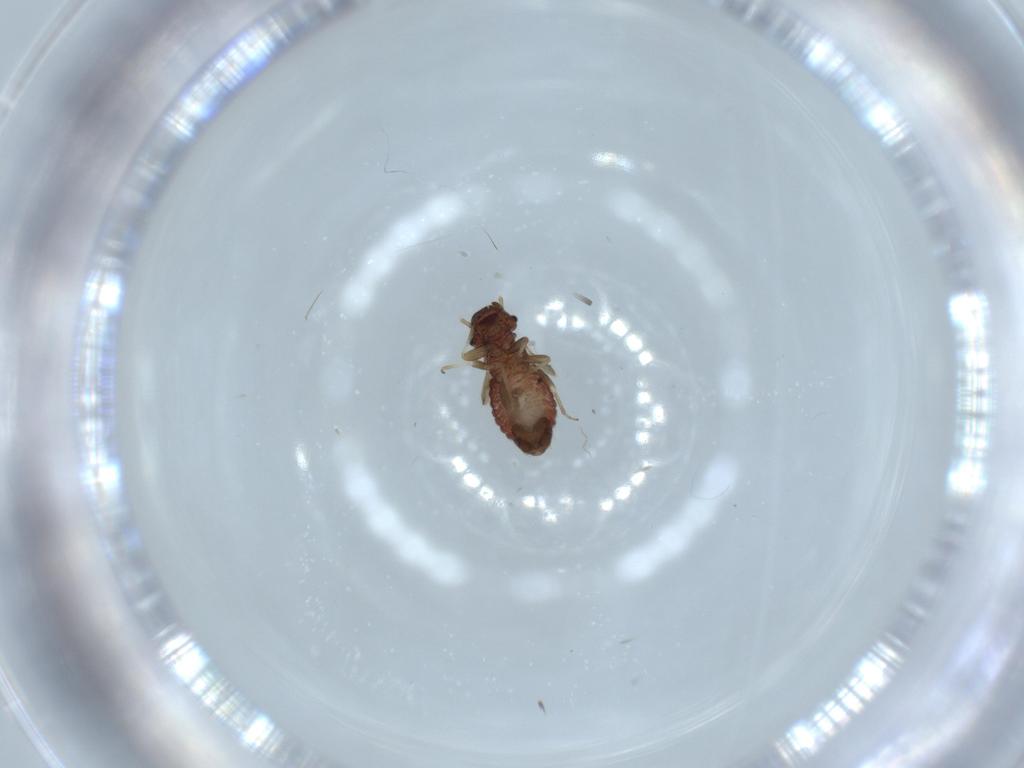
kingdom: Animalia
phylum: Arthropoda
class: Insecta
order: Psocodea
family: Archipsocidae
